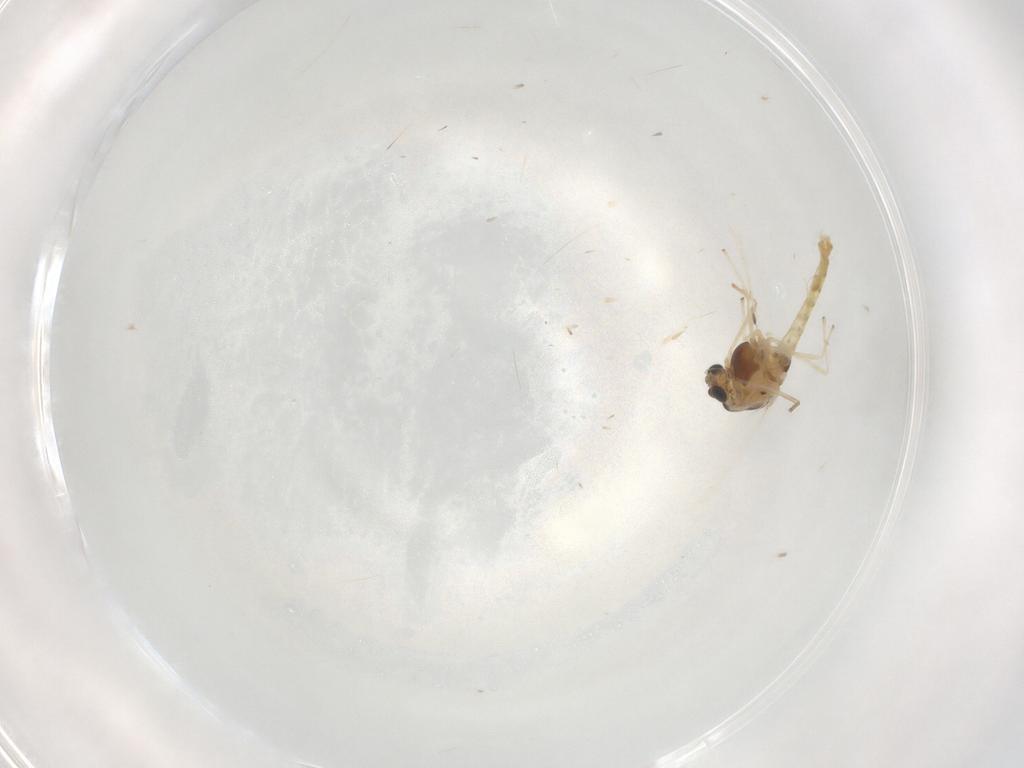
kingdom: Animalia
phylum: Arthropoda
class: Insecta
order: Diptera
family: Chironomidae
